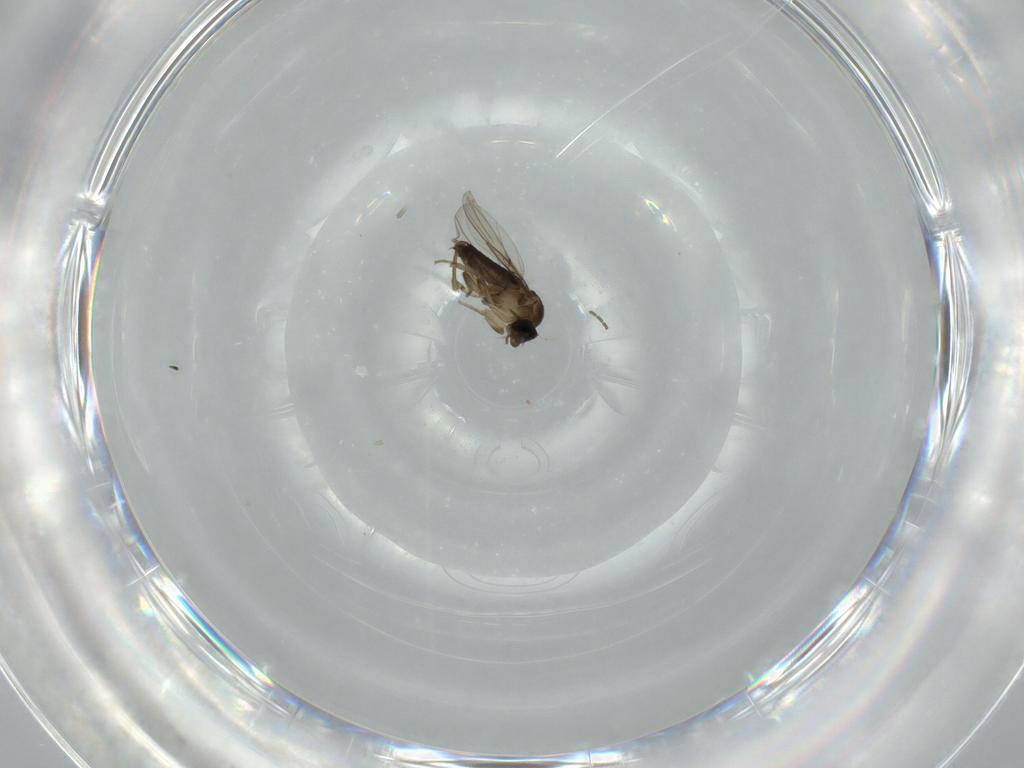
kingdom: Animalia
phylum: Arthropoda
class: Insecta
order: Diptera
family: Phoridae
